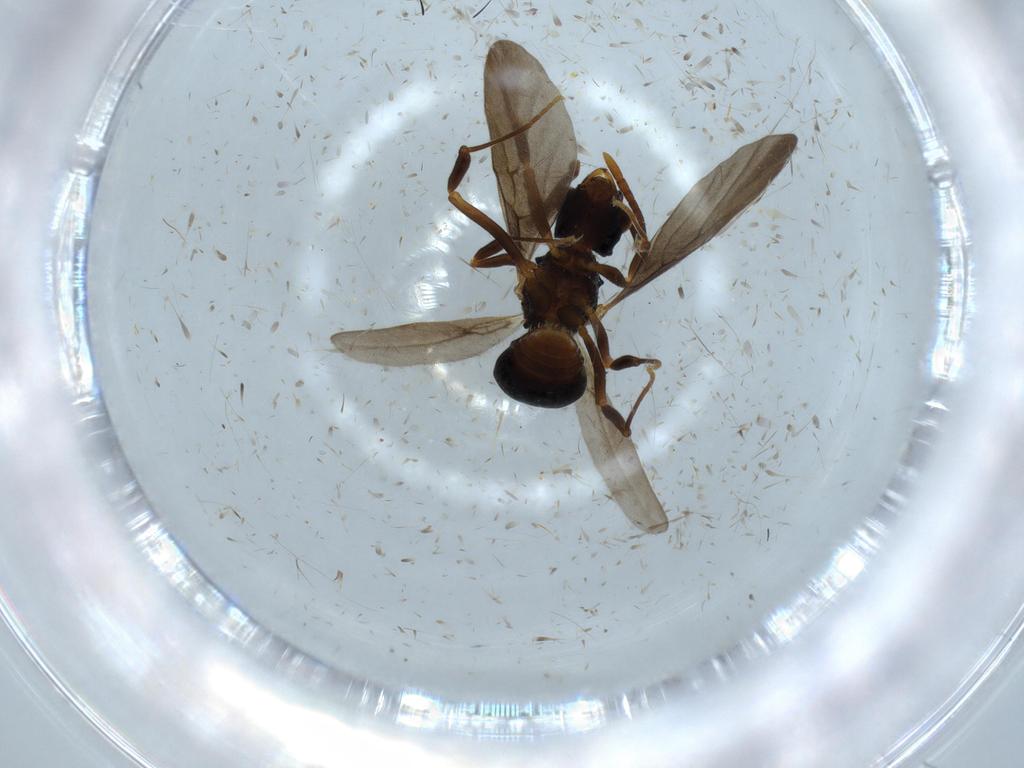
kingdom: Animalia
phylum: Arthropoda
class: Insecta
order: Hymenoptera
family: Formicidae
